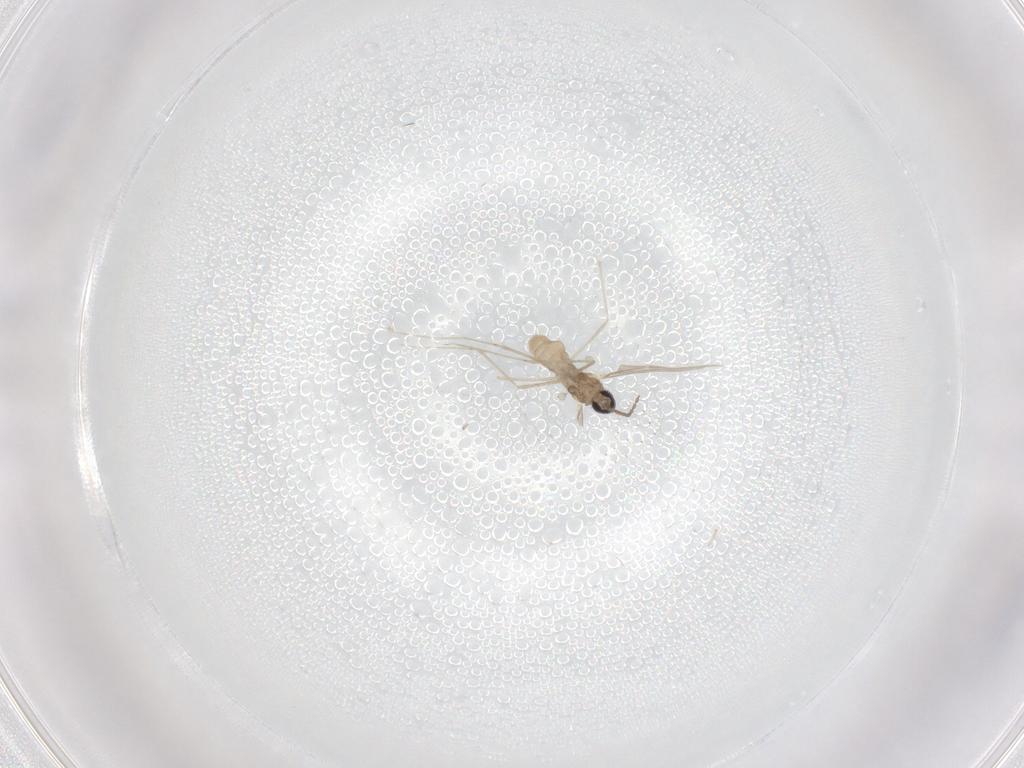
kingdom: Animalia
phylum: Arthropoda
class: Insecta
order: Diptera
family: Cecidomyiidae
